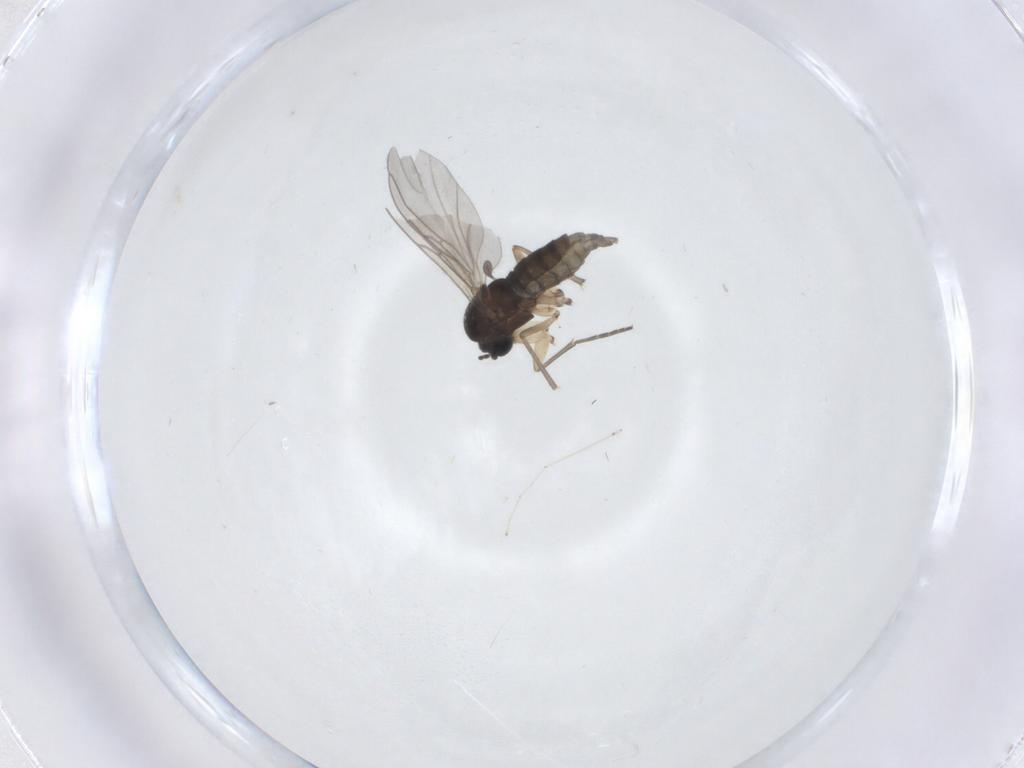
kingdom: Animalia
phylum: Arthropoda
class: Insecta
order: Diptera
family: Sciaridae
